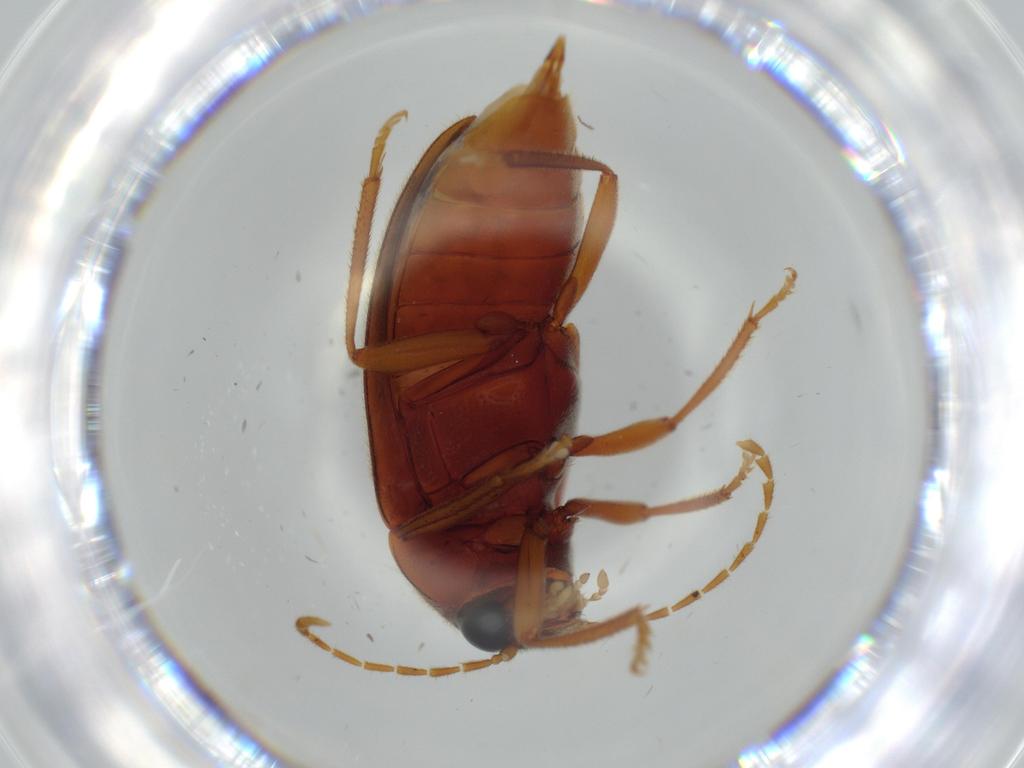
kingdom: Animalia
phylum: Arthropoda
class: Insecta
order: Coleoptera
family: Ptilodactylidae
